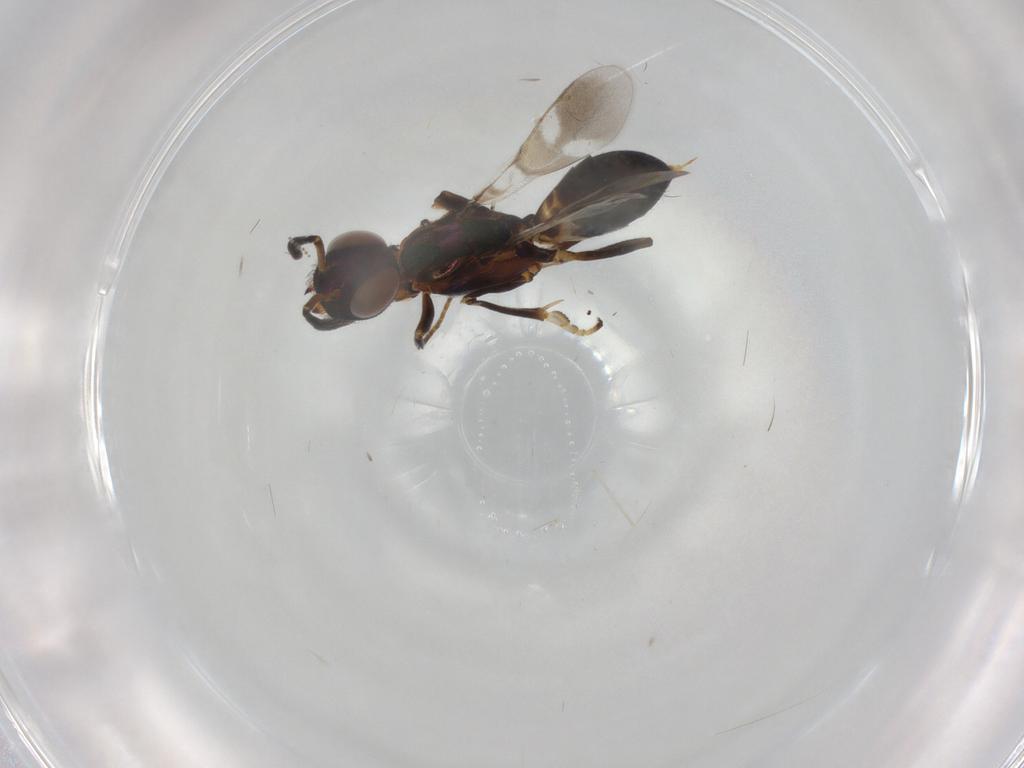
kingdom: Animalia
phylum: Arthropoda
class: Insecta
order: Hymenoptera
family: Eupelmidae
